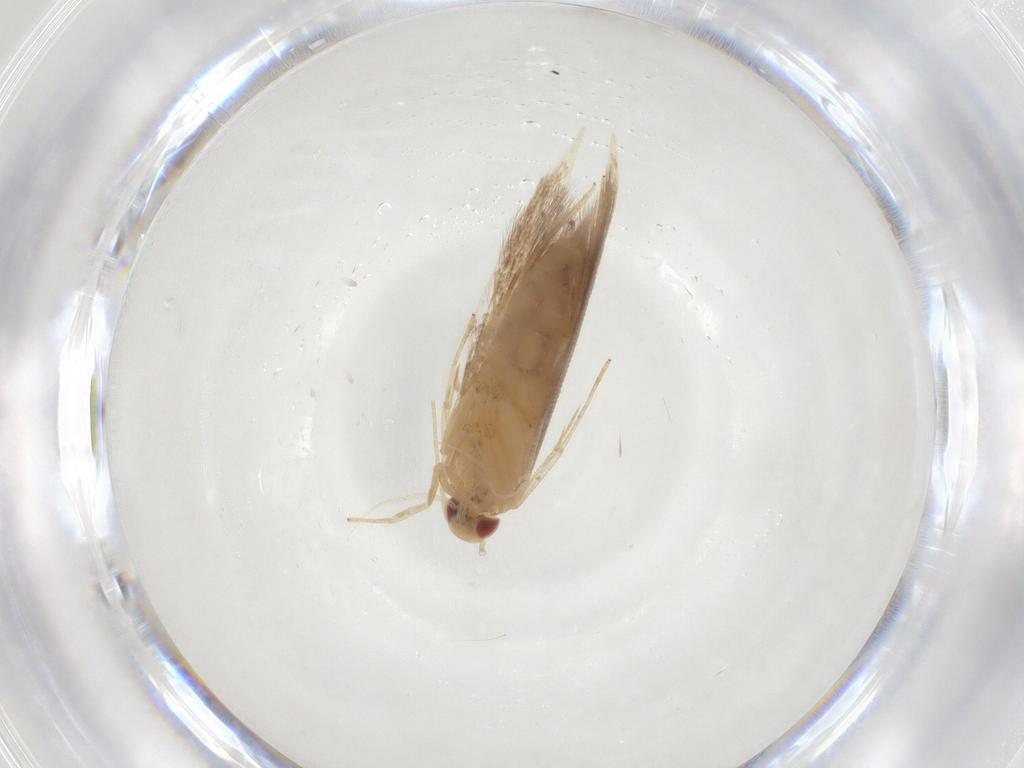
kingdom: Animalia
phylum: Arthropoda
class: Insecta
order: Lepidoptera
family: Erebidae
